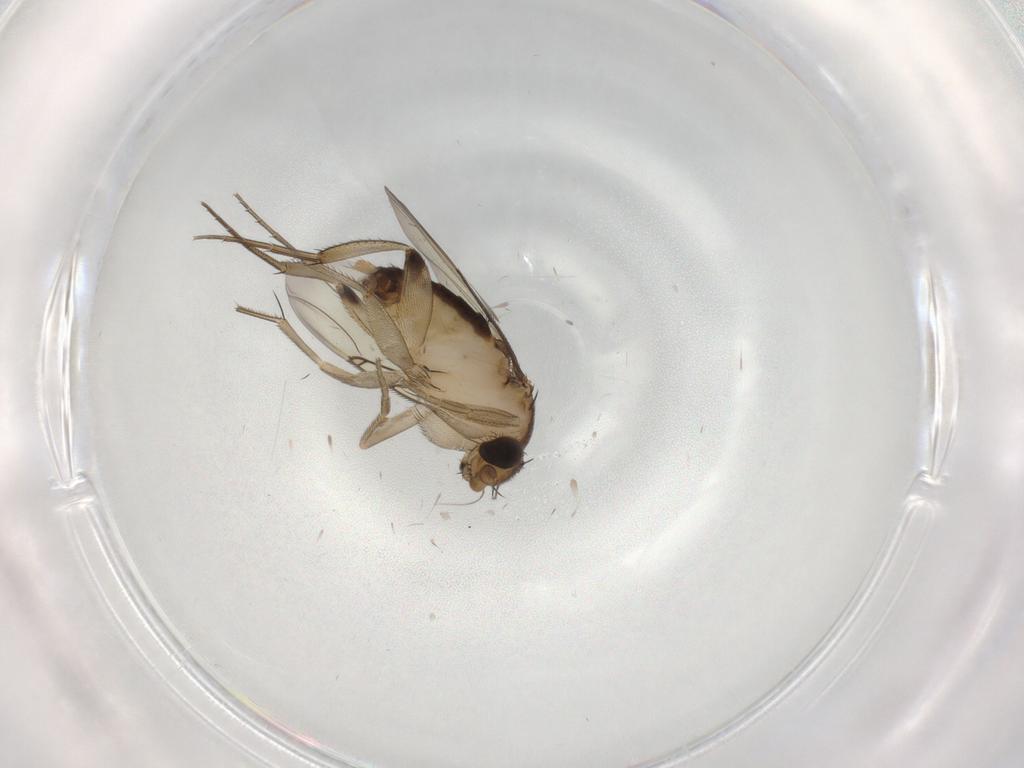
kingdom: Animalia
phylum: Arthropoda
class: Insecta
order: Diptera
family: Phoridae
